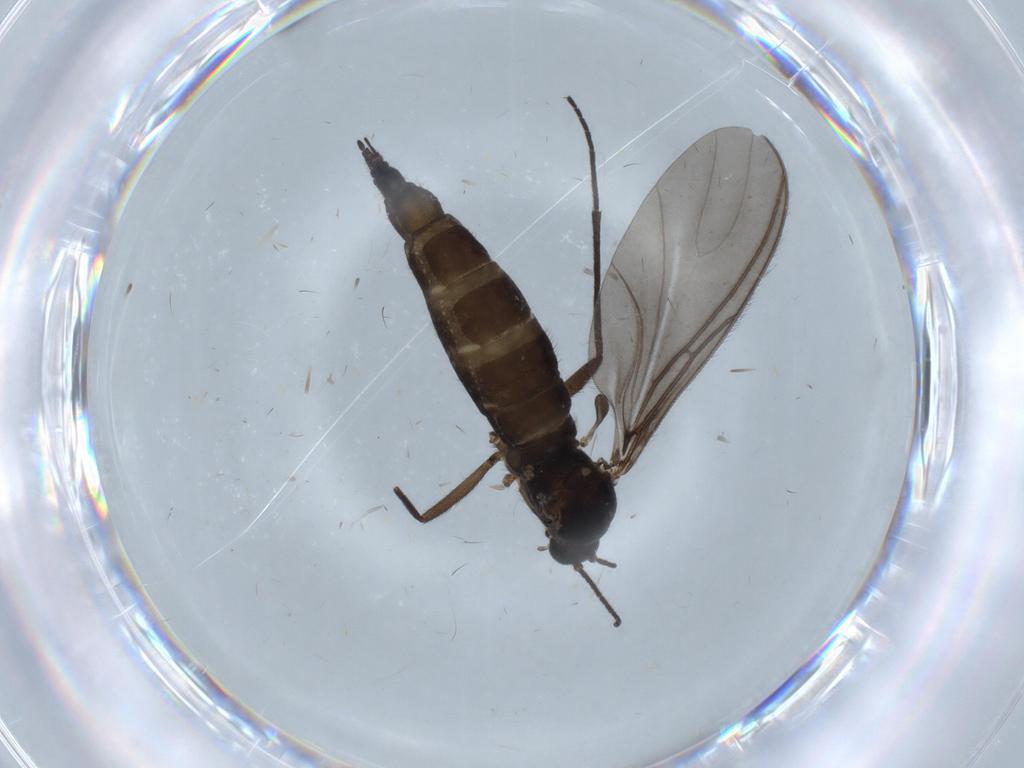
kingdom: Animalia
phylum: Arthropoda
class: Insecta
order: Diptera
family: Sciaridae
